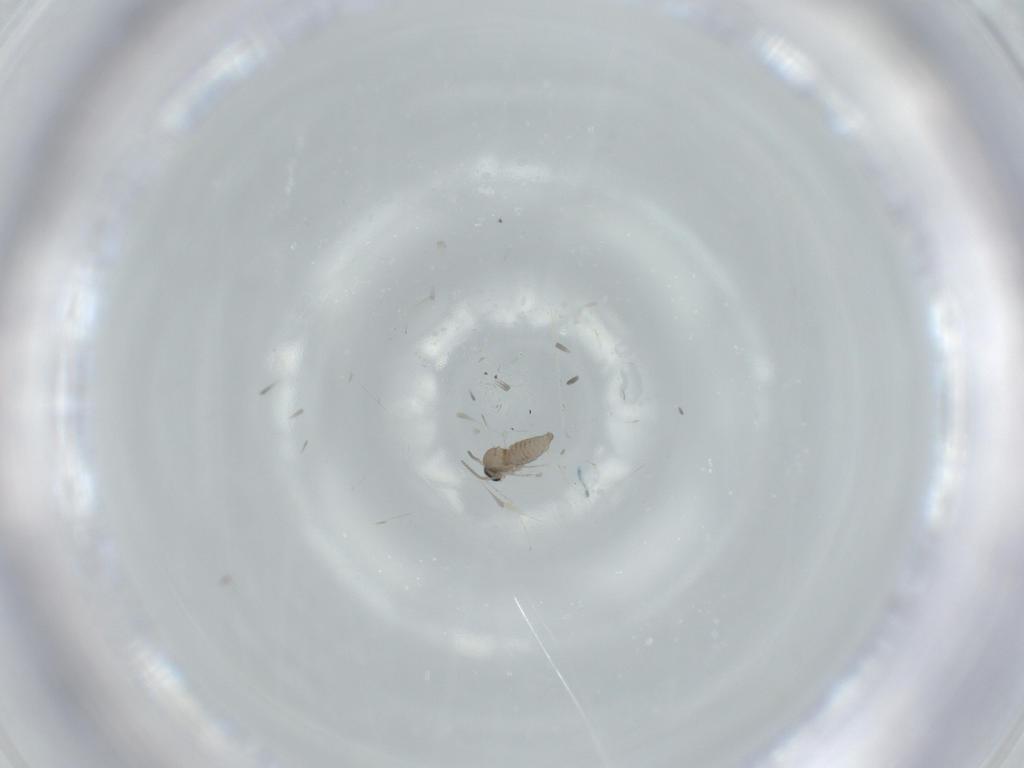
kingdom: Animalia
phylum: Arthropoda
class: Insecta
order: Diptera
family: Cecidomyiidae
